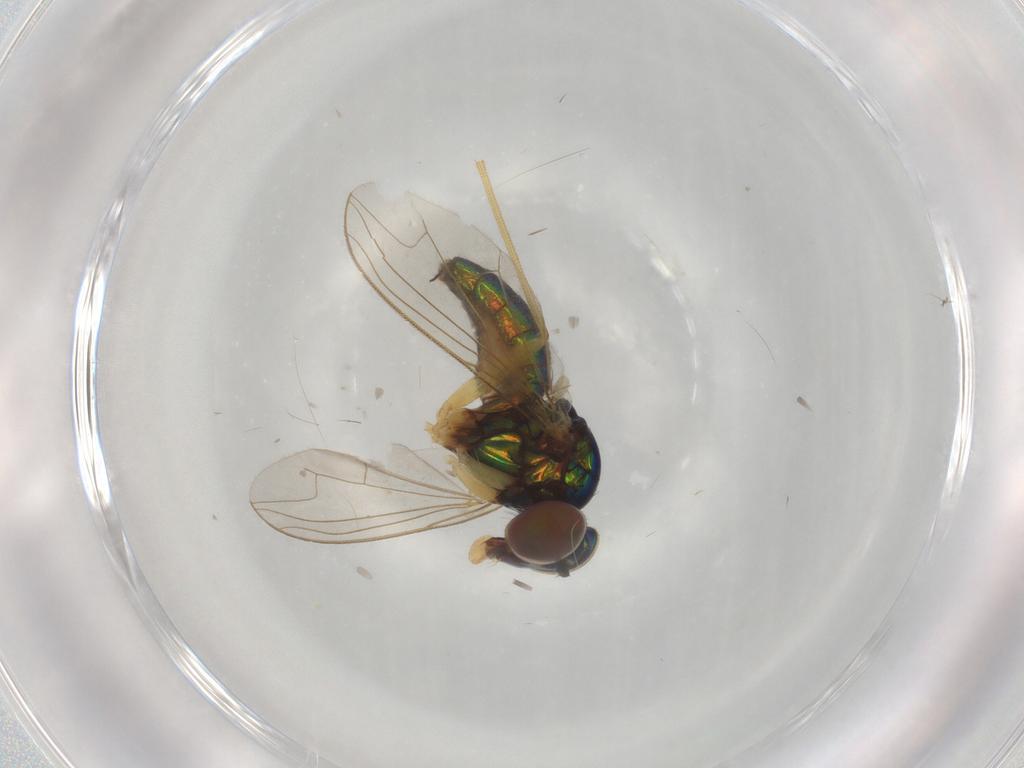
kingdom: Animalia
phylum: Arthropoda
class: Insecta
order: Diptera
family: Dolichopodidae
